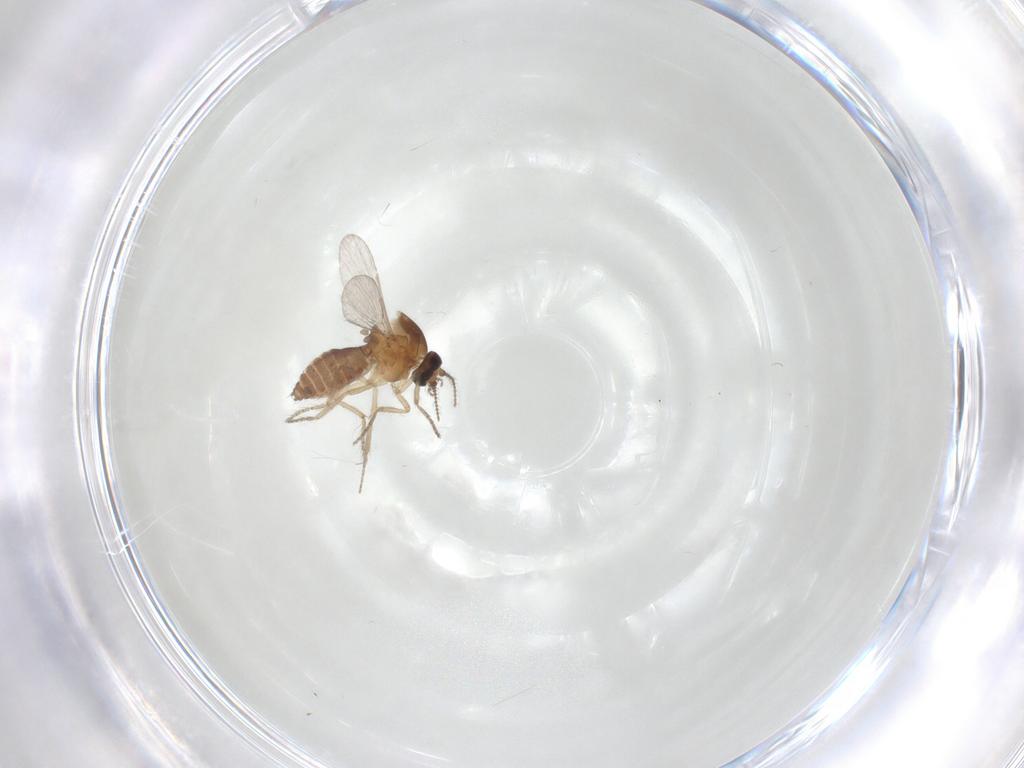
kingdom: Animalia
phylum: Arthropoda
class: Insecta
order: Diptera
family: Ceratopogonidae
